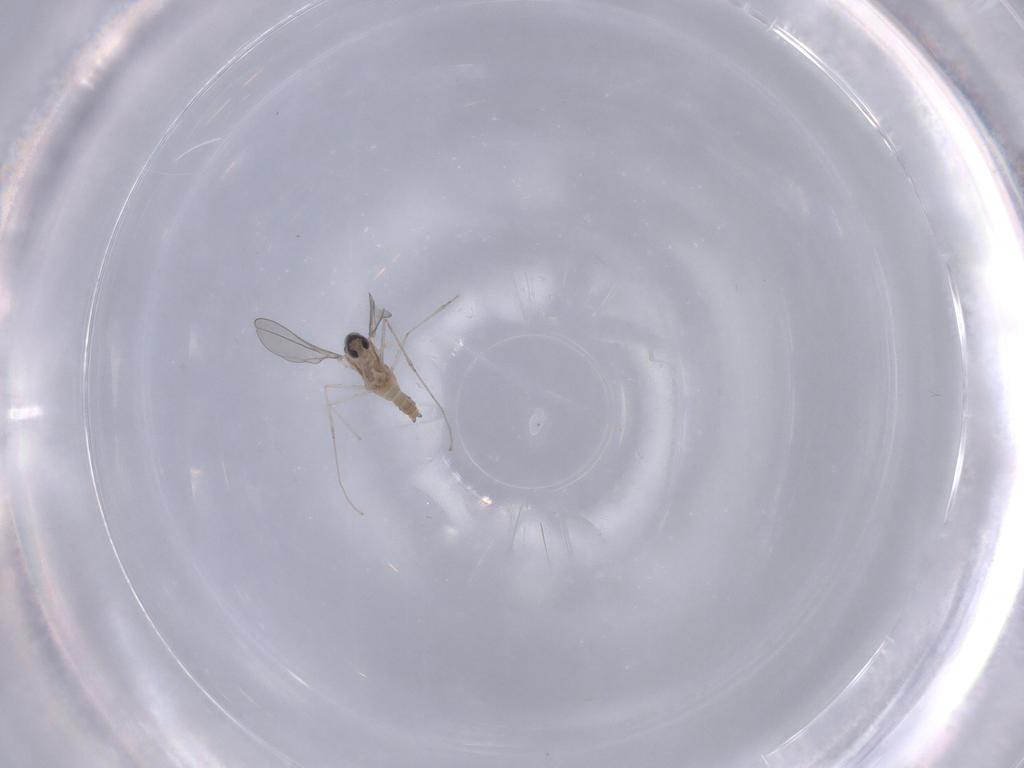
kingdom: Animalia
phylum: Arthropoda
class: Insecta
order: Diptera
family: Cecidomyiidae
